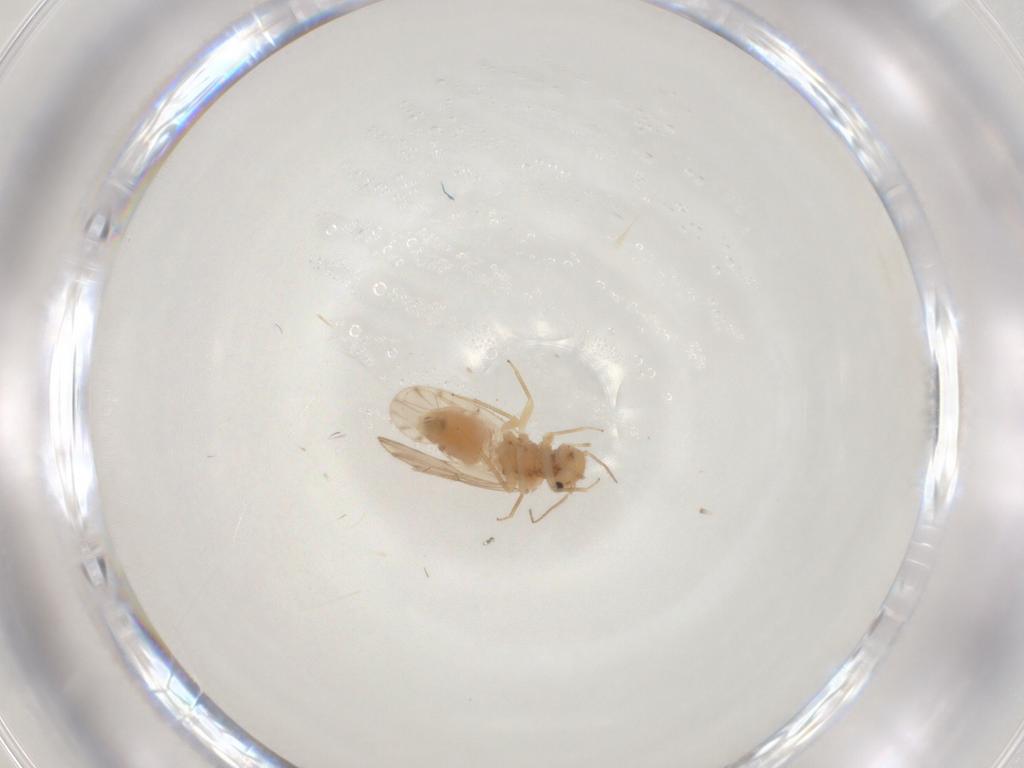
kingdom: Animalia
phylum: Arthropoda
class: Insecta
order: Psocodea
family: Ectopsocidae
